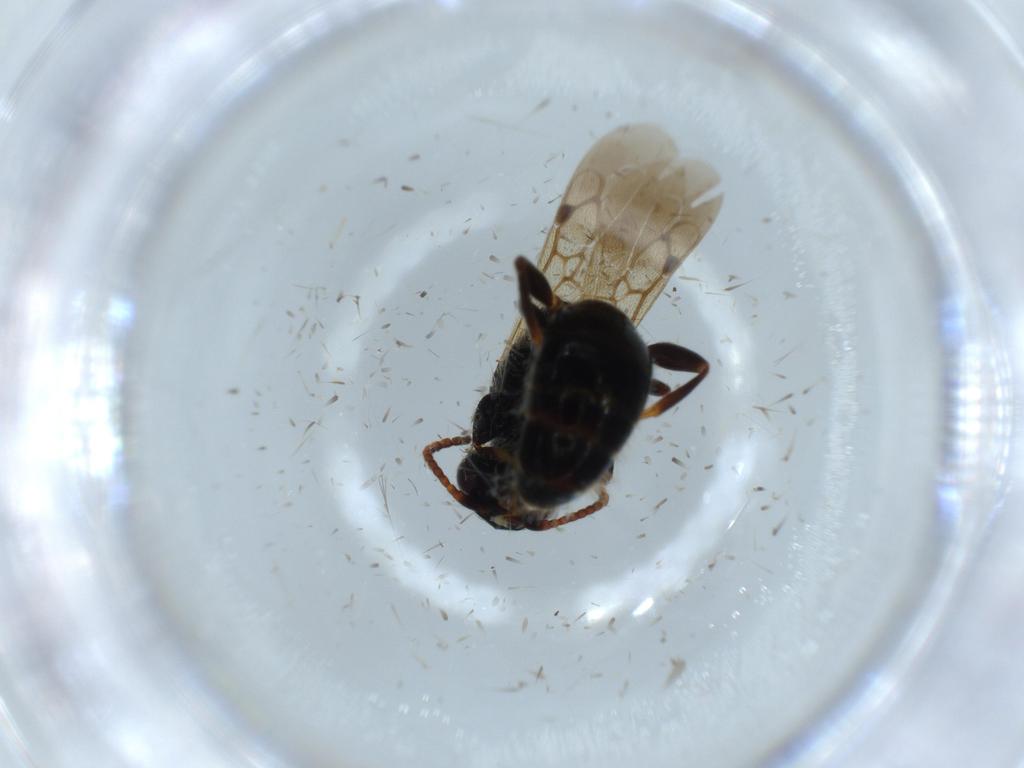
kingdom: Animalia
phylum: Arthropoda
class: Insecta
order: Hymenoptera
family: Bethylidae
